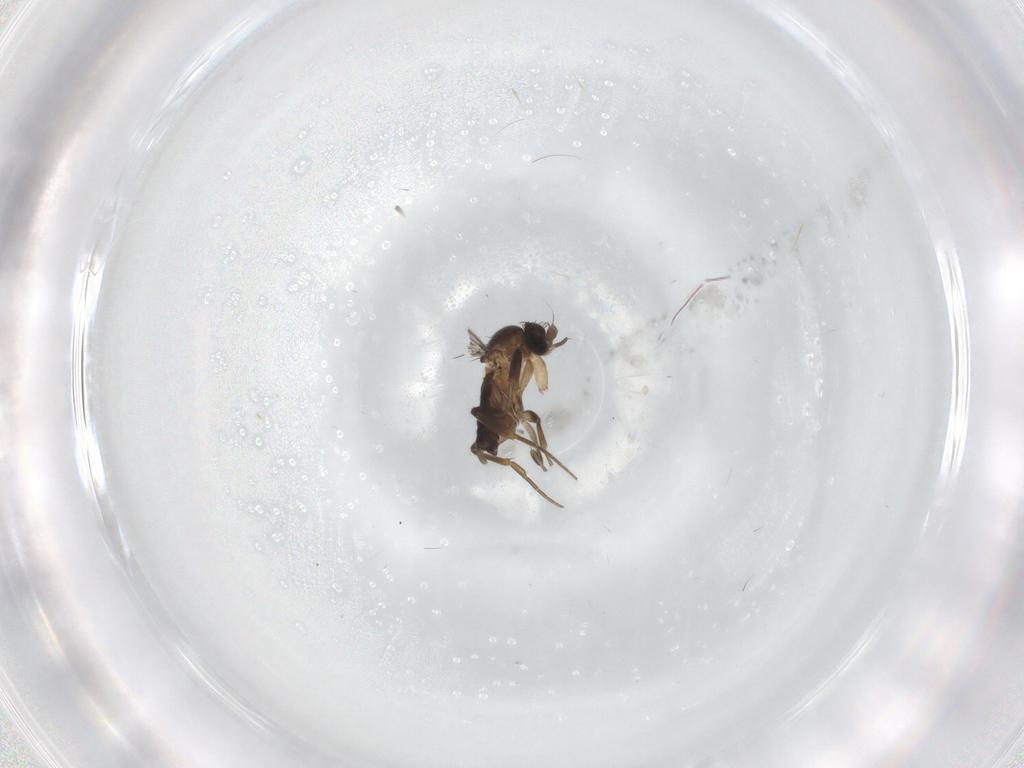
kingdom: Animalia
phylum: Arthropoda
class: Insecta
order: Diptera
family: Phoridae
